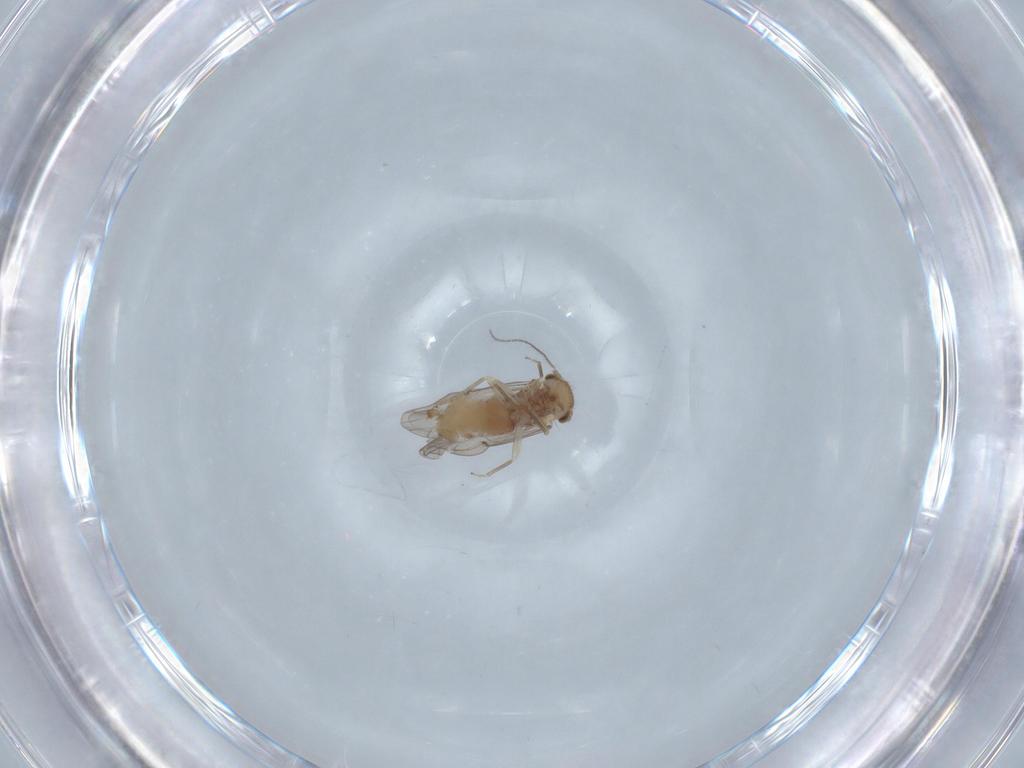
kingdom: Animalia
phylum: Arthropoda
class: Insecta
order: Psocodea
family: Ectopsocidae
